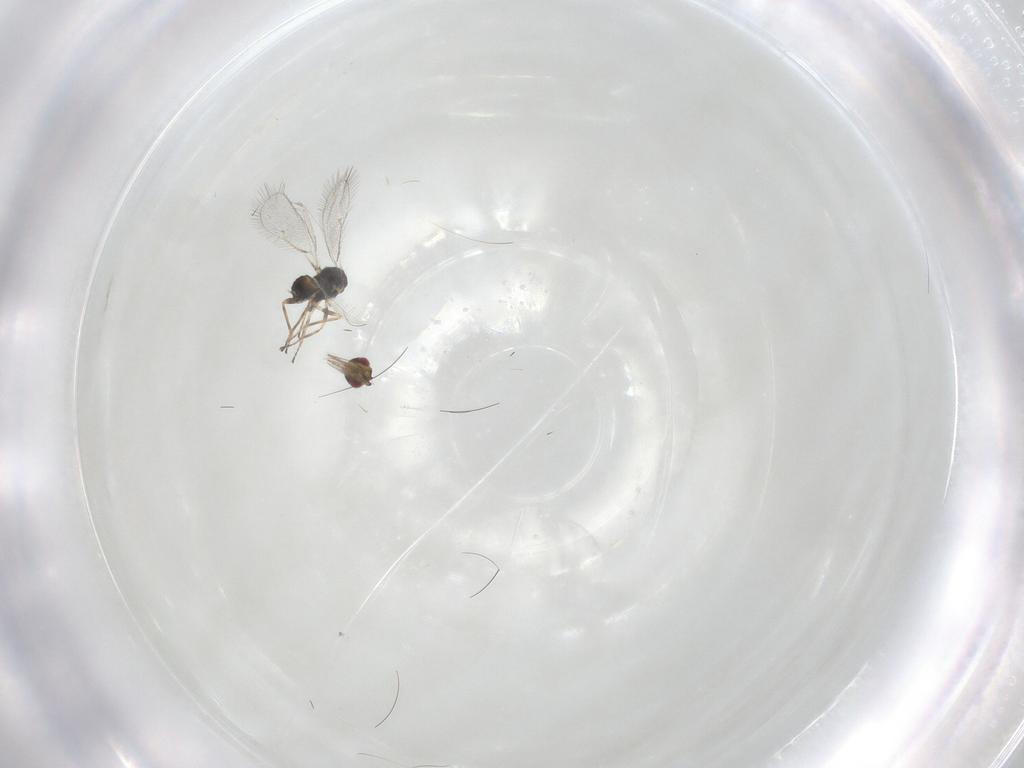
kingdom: Animalia
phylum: Arthropoda
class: Insecta
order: Hymenoptera
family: Eulophidae
